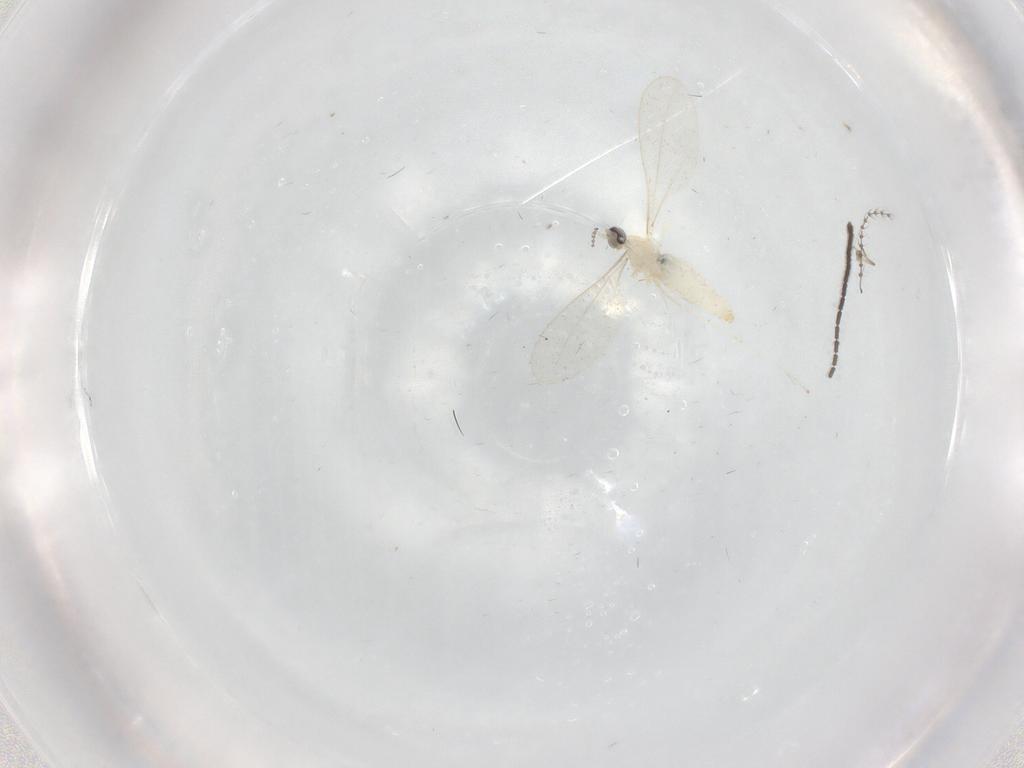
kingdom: Animalia
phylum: Arthropoda
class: Insecta
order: Diptera
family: Cecidomyiidae
